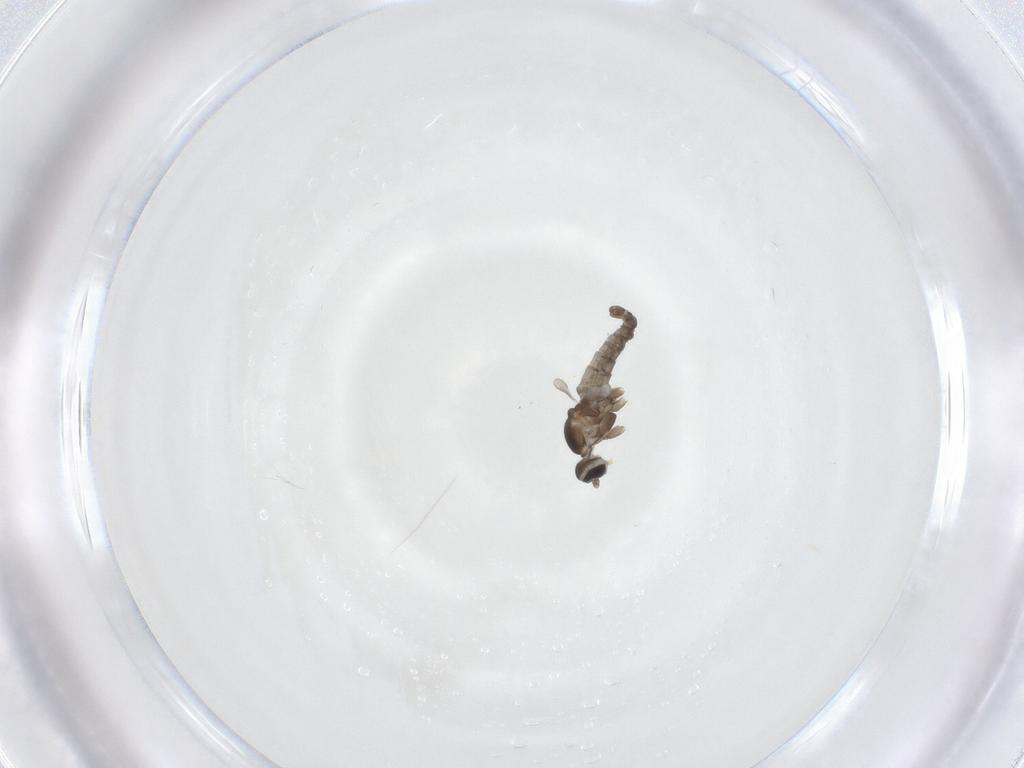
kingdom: Animalia
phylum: Arthropoda
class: Insecta
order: Diptera
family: Cecidomyiidae
